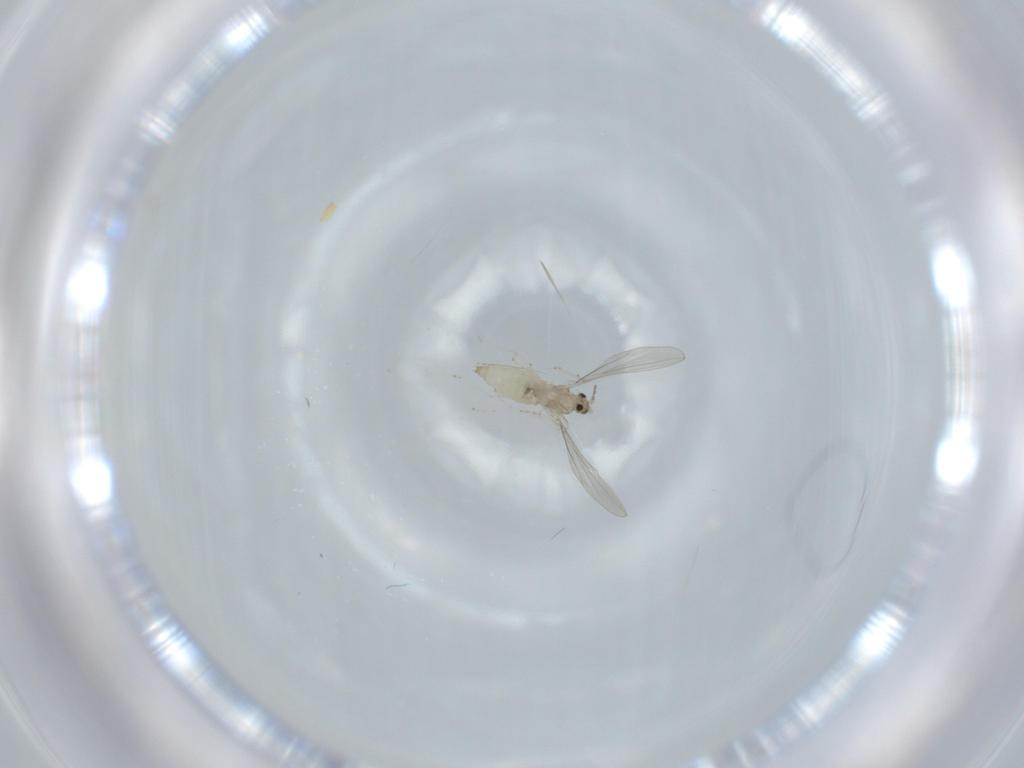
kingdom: Animalia
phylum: Arthropoda
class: Insecta
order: Diptera
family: Cecidomyiidae
